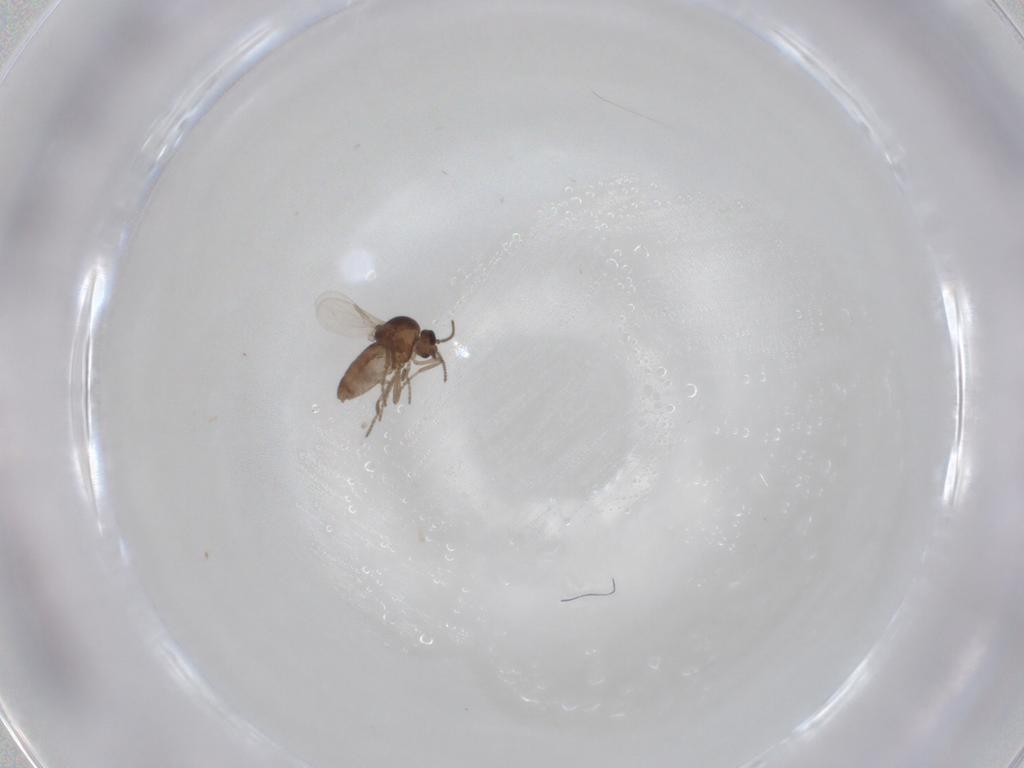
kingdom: Animalia
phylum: Arthropoda
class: Insecta
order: Diptera
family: Ceratopogonidae
